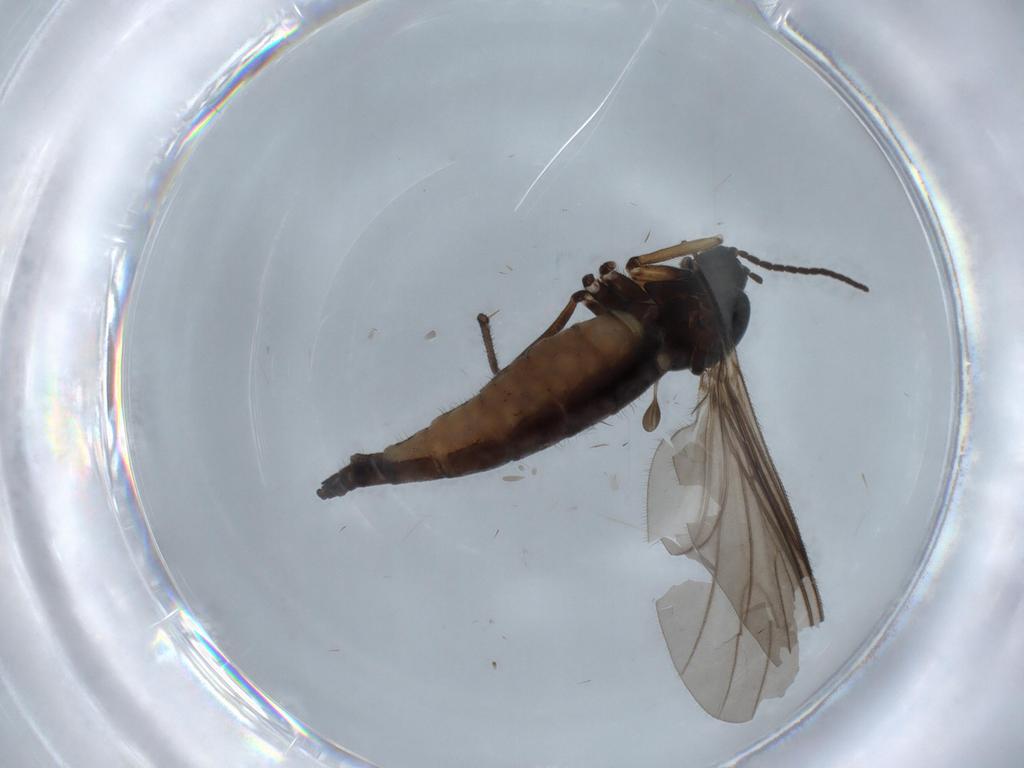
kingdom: Animalia
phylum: Arthropoda
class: Insecta
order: Diptera
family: Sciaridae
